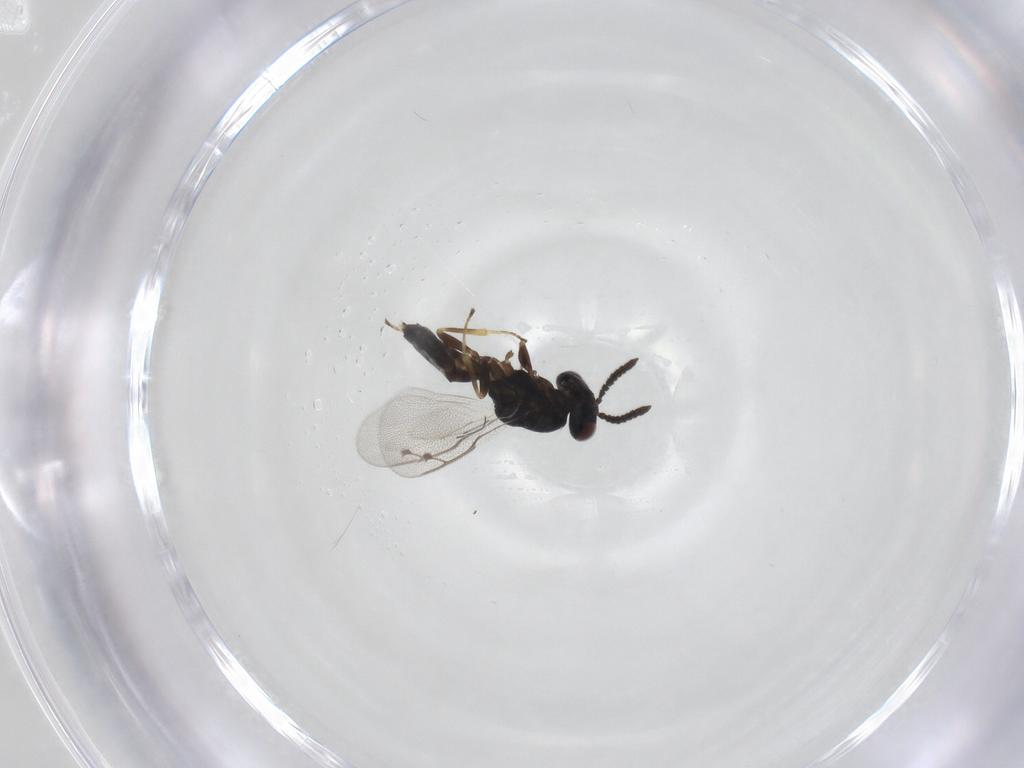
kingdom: Animalia
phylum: Arthropoda
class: Insecta
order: Hymenoptera
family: Pteromalidae
